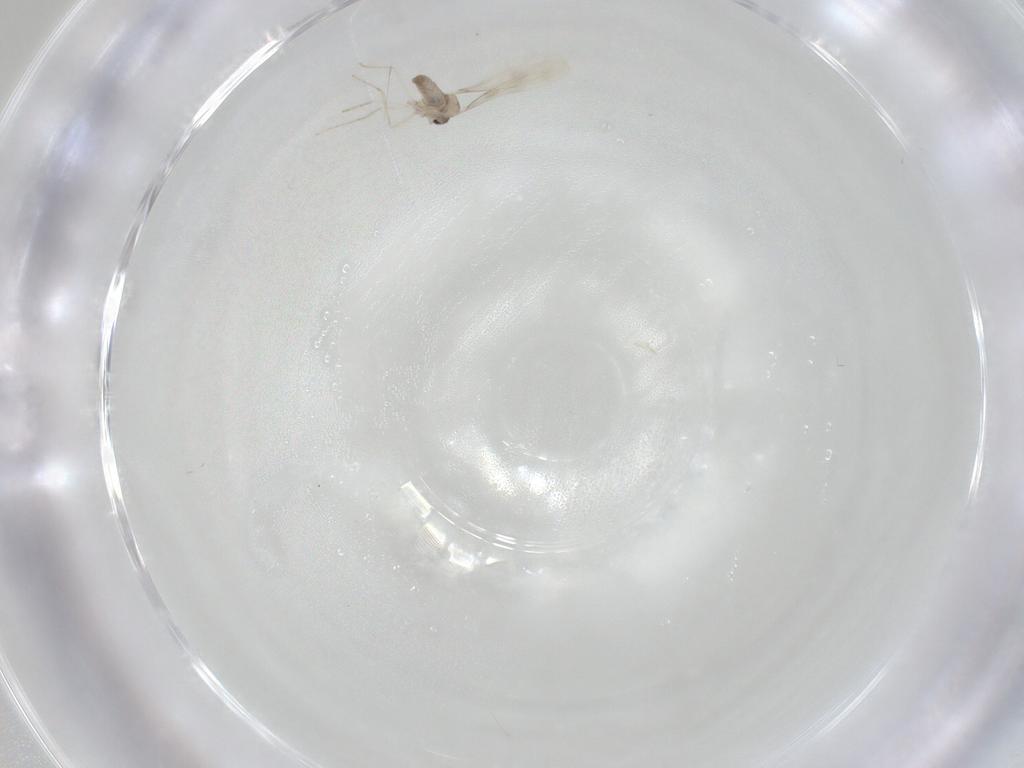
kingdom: Animalia
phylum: Arthropoda
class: Insecta
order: Diptera
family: Cecidomyiidae
